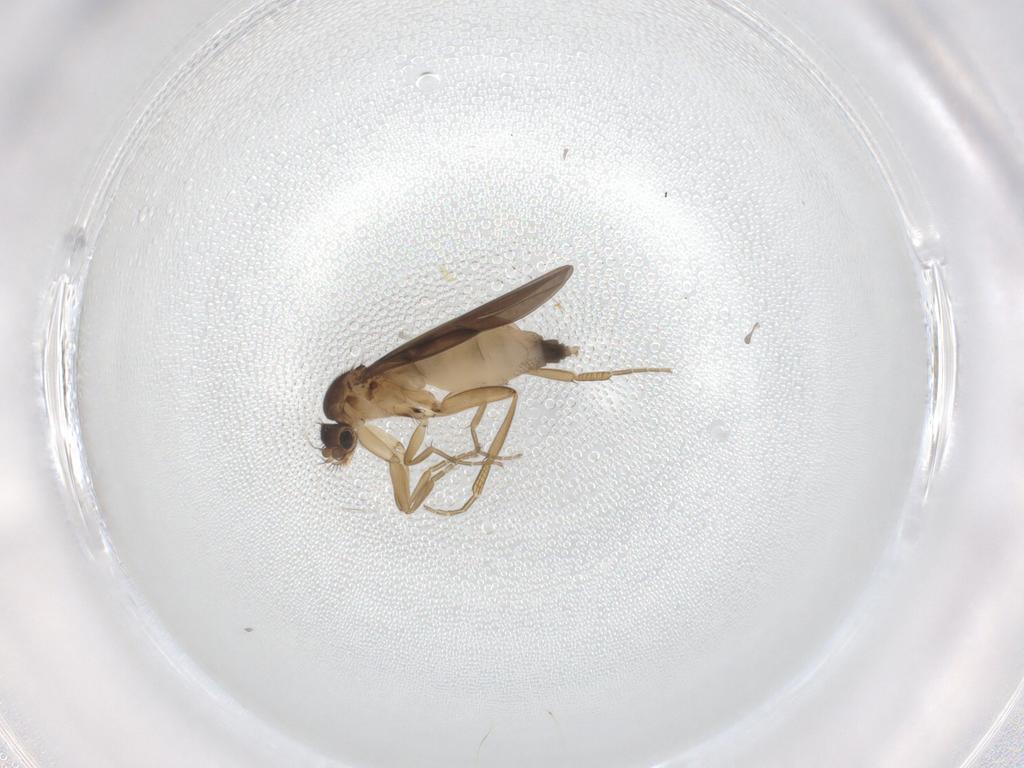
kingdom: Animalia
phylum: Arthropoda
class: Insecta
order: Diptera
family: Phoridae
